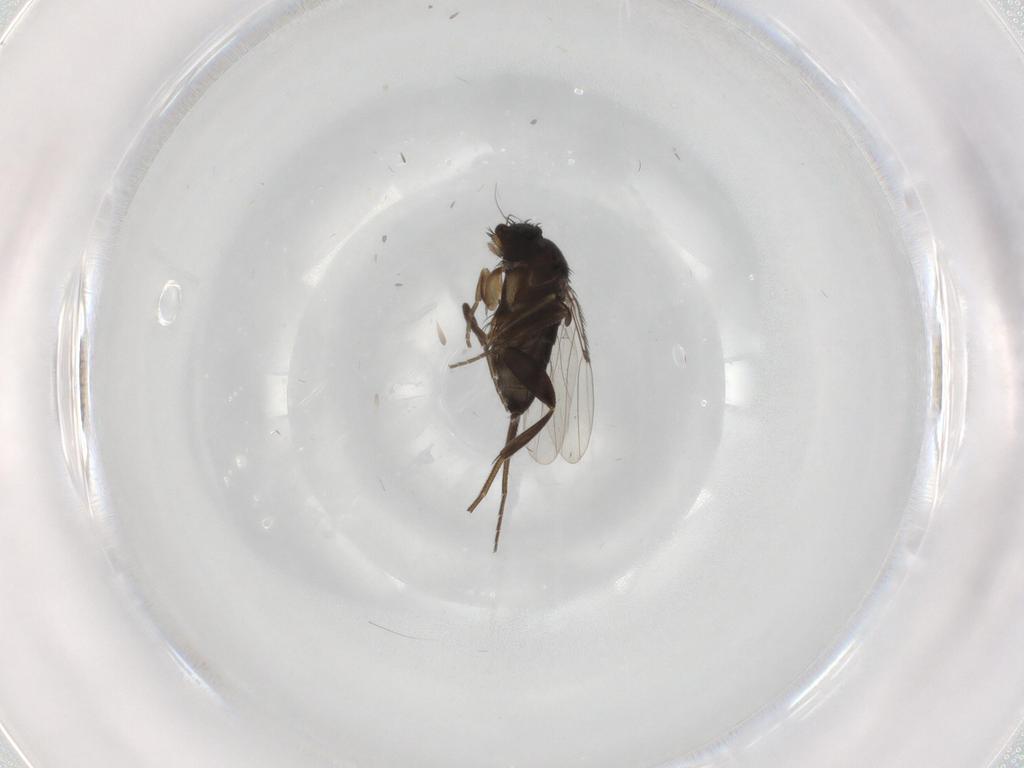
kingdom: Animalia
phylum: Arthropoda
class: Insecta
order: Diptera
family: Phoridae
